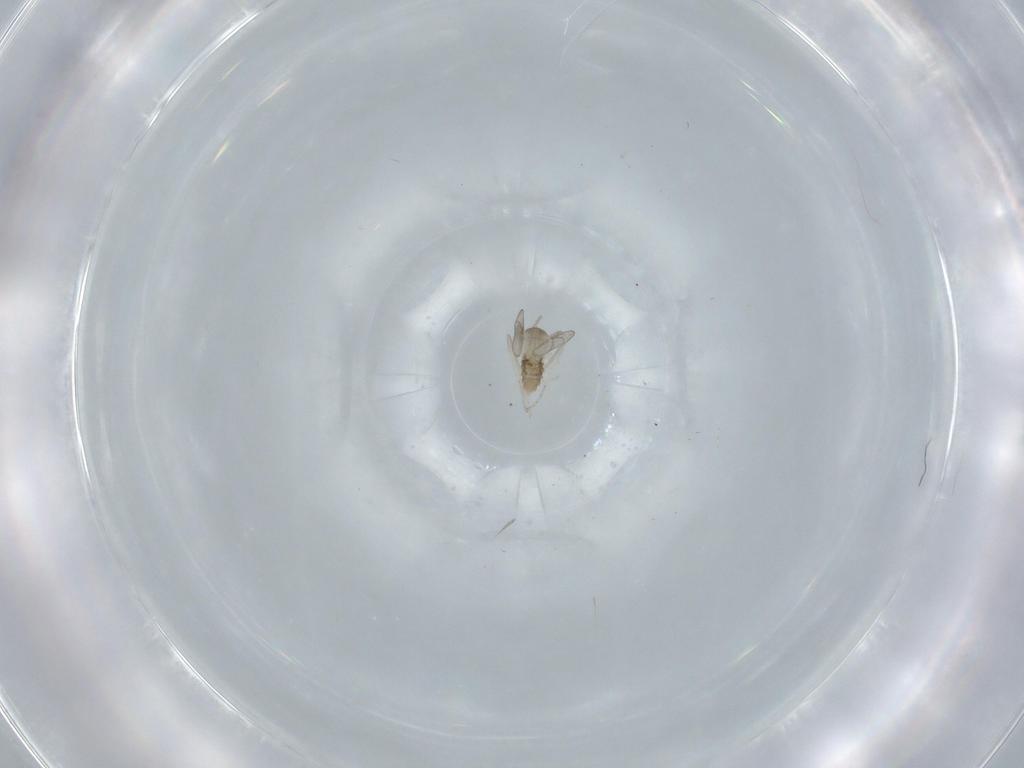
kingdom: Animalia
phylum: Arthropoda
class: Insecta
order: Diptera
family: Cecidomyiidae
